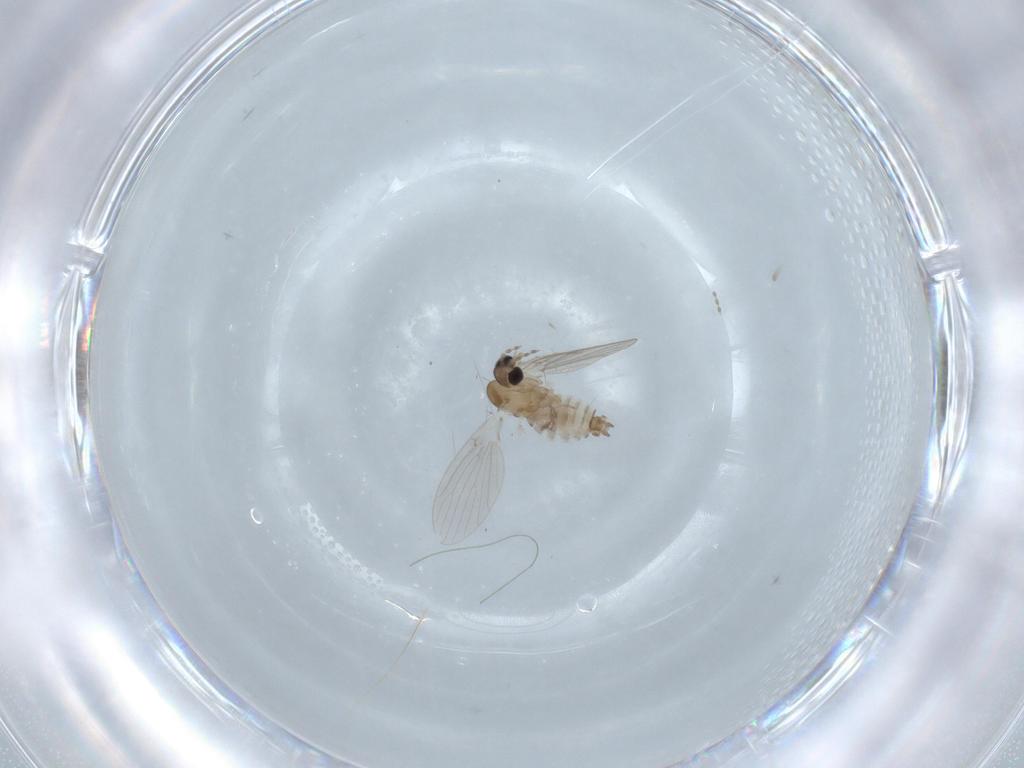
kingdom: Animalia
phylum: Arthropoda
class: Insecta
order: Diptera
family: Psychodidae
